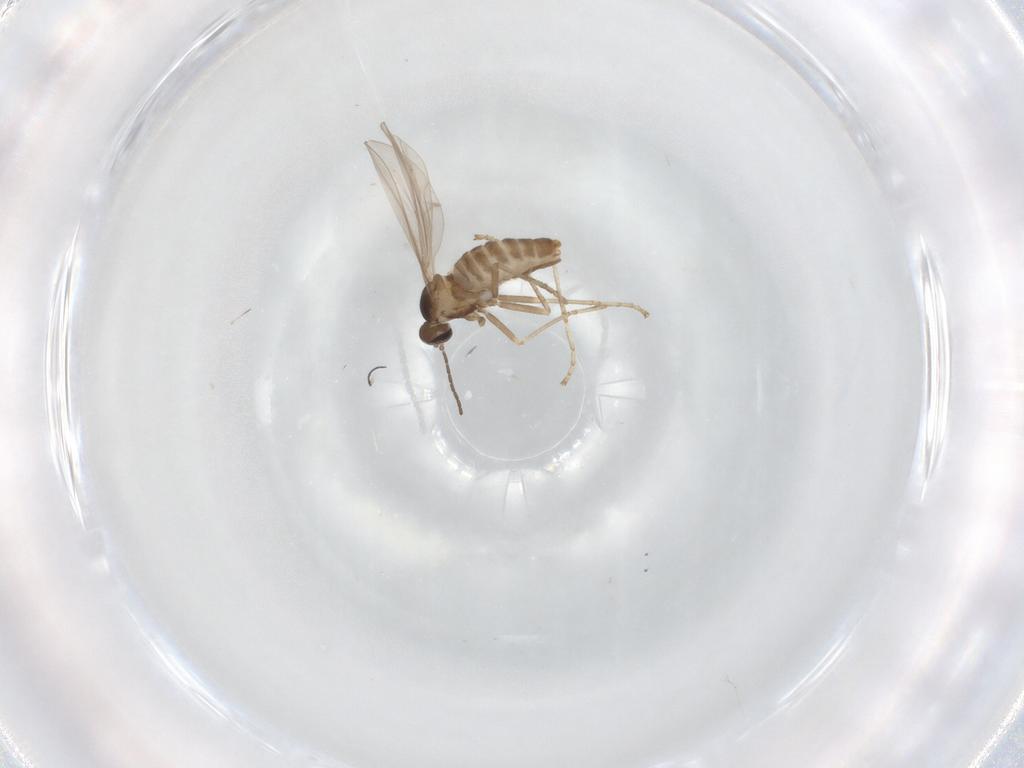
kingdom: Animalia
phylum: Arthropoda
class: Insecta
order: Diptera
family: Cecidomyiidae
